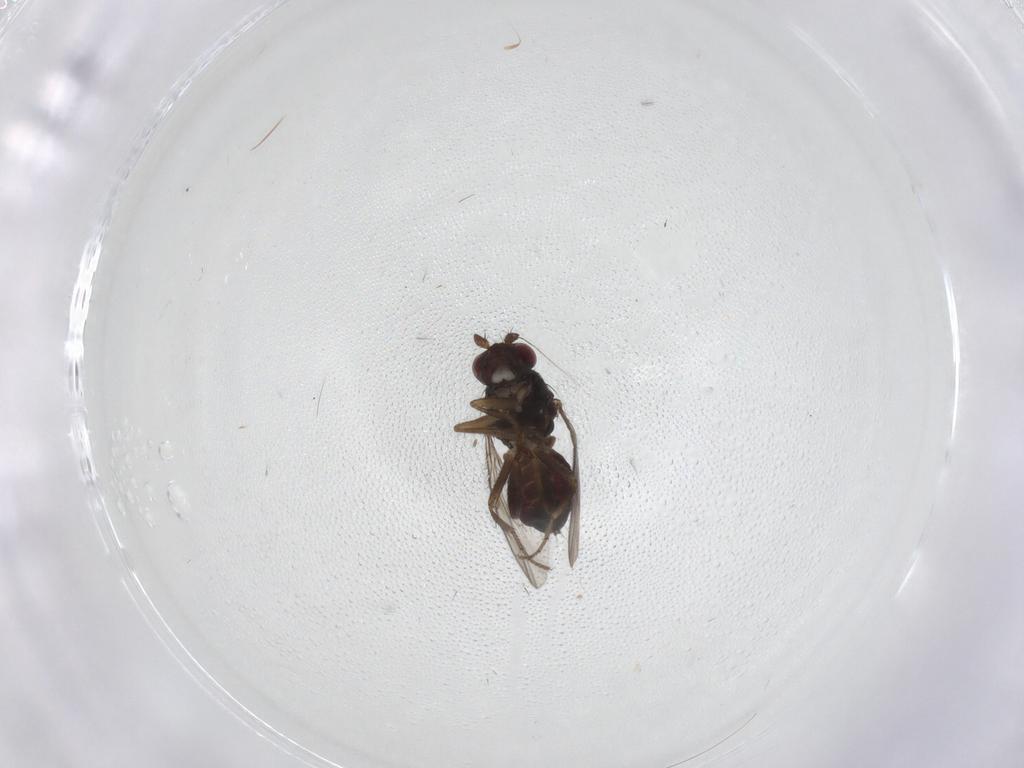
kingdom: Animalia
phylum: Arthropoda
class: Insecta
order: Diptera
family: Sphaeroceridae
